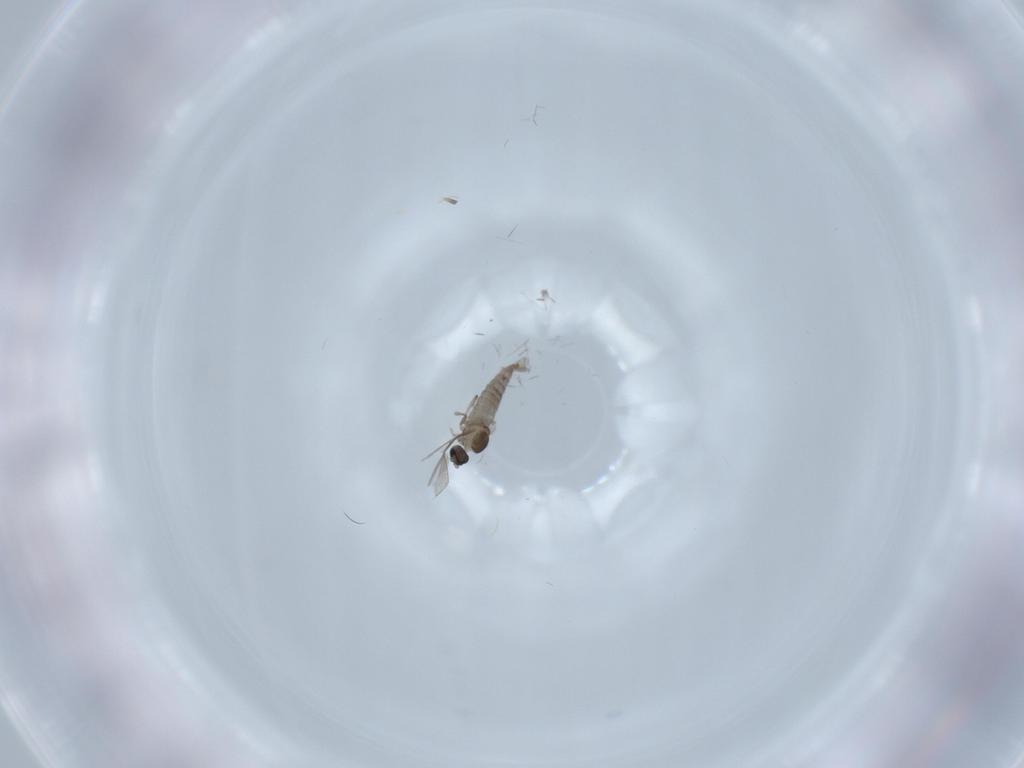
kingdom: Animalia
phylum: Arthropoda
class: Insecta
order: Diptera
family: Cecidomyiidae
